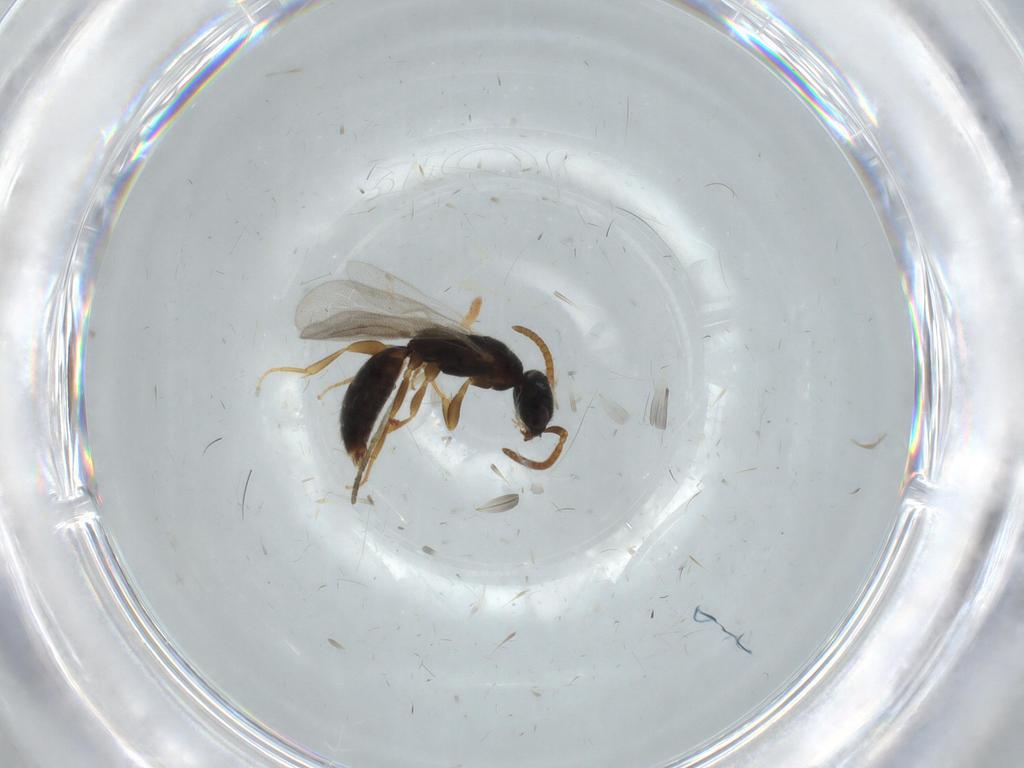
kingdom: Animalia
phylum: Arthropoda
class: Insecta
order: Hymenoptera
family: Bethylidae
